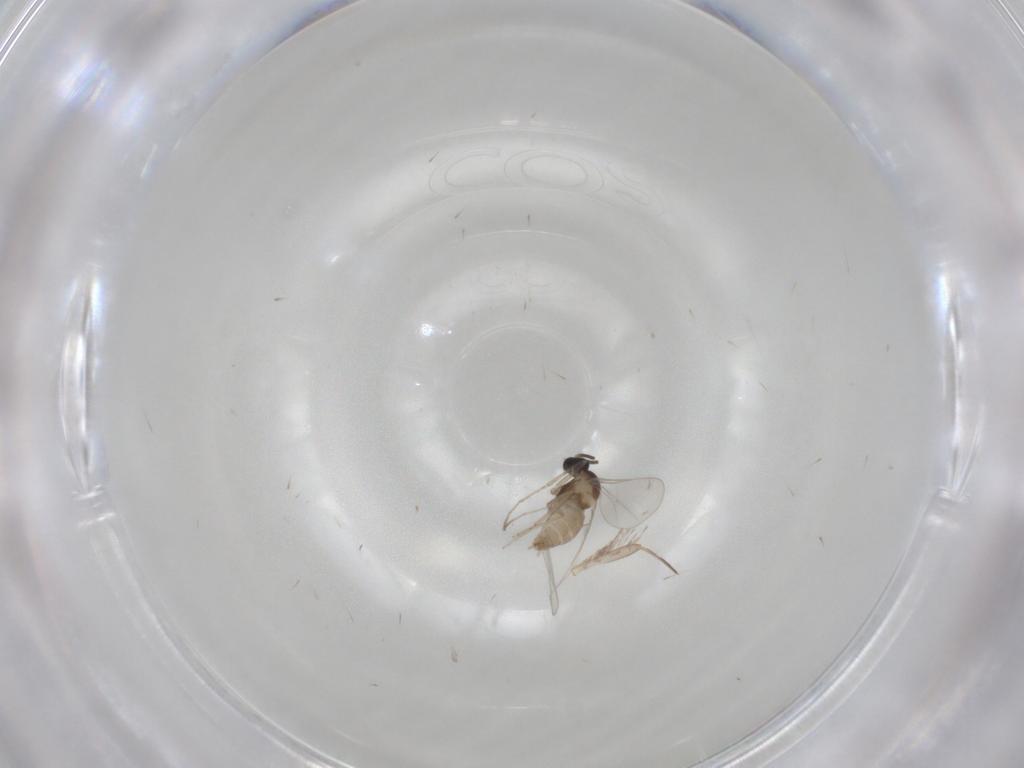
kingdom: Animalia
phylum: Arthropoda
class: Insecta
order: Diptera
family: Cecidomyiidae
